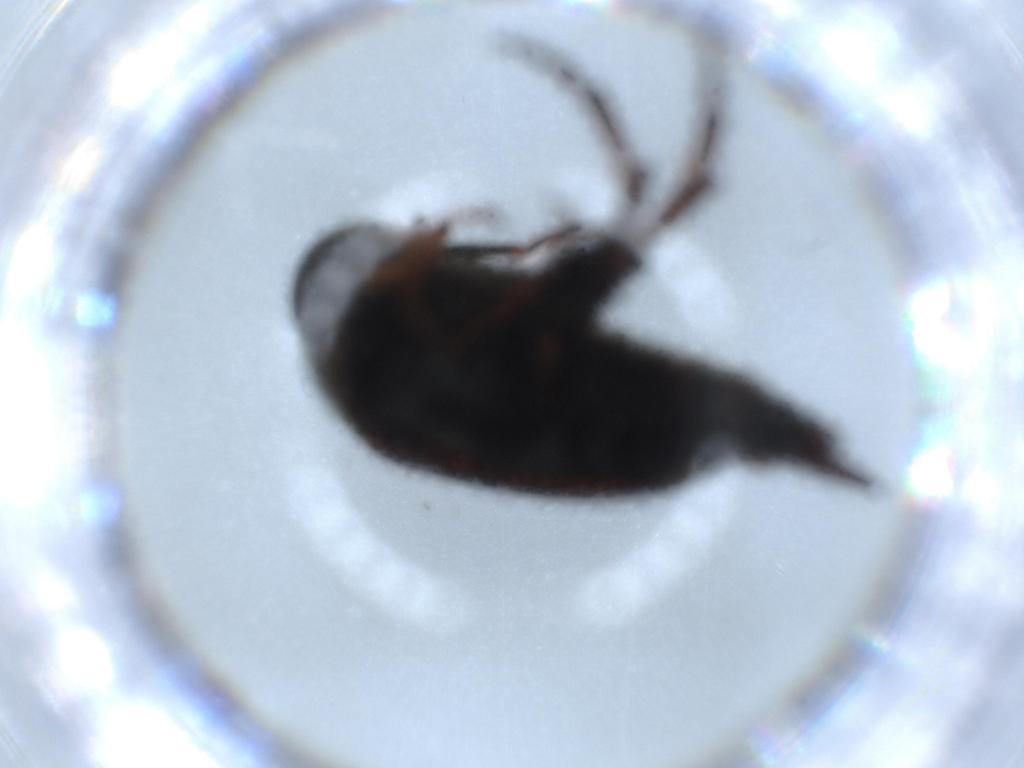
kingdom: Animalia
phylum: Arthropoda
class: Insecta
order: Coleoptera
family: Mordellidae
